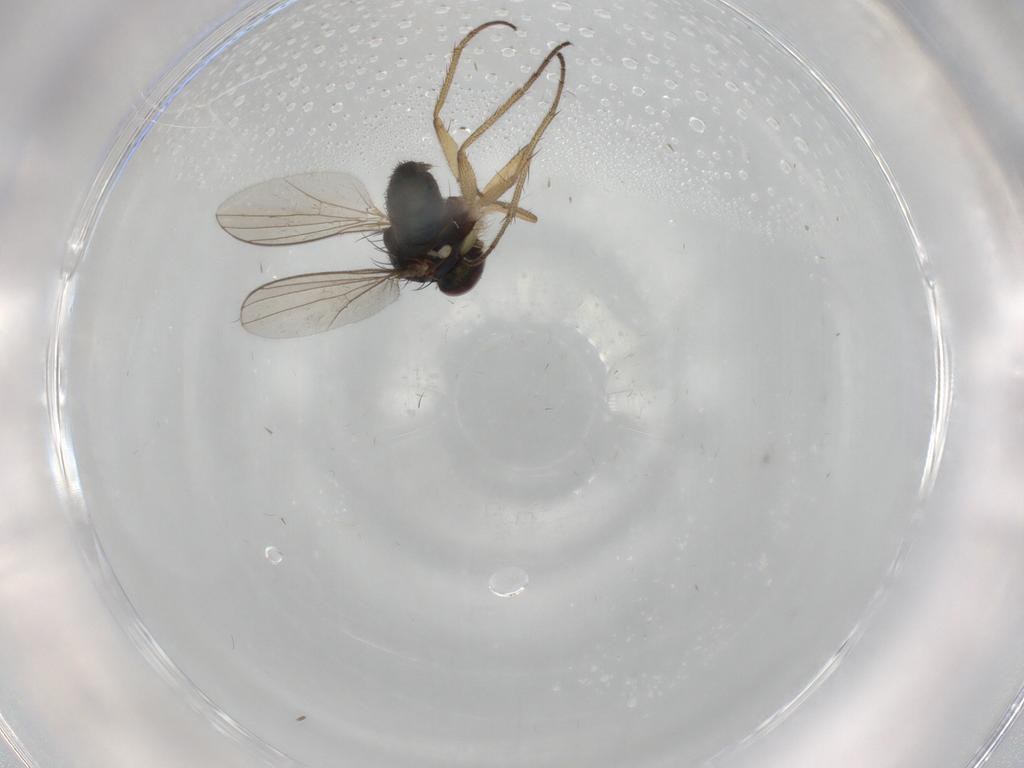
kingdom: Animalia
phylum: Arthropoda
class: Insecta
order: Diptera
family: Dolichopodidae
